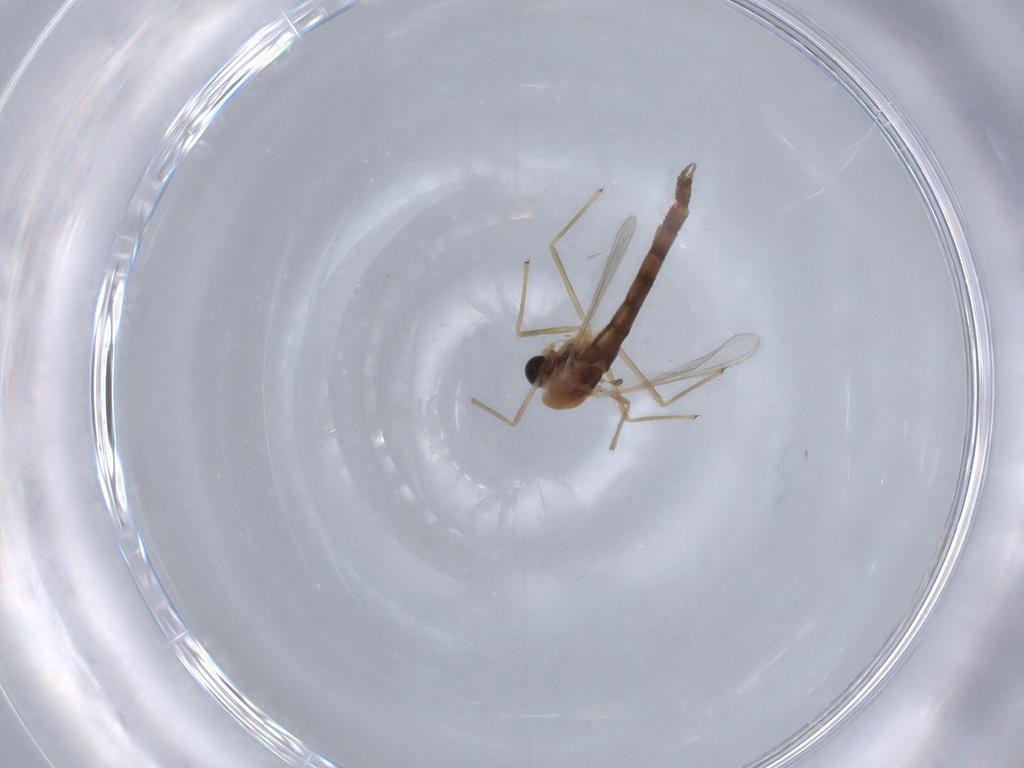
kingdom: Animalia
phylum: Arthropoda
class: Insecta
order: Diptera
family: Chironomidae
